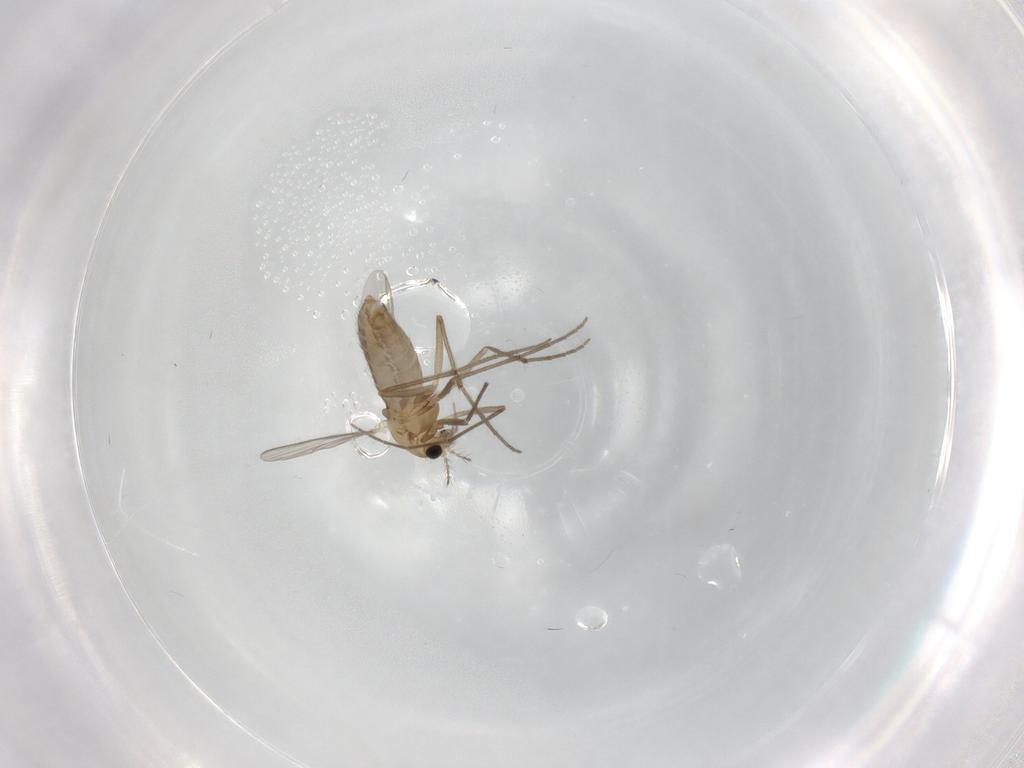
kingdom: Animalia
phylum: Arthropoda
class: Insecta
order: Diptera
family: Chironomidae
